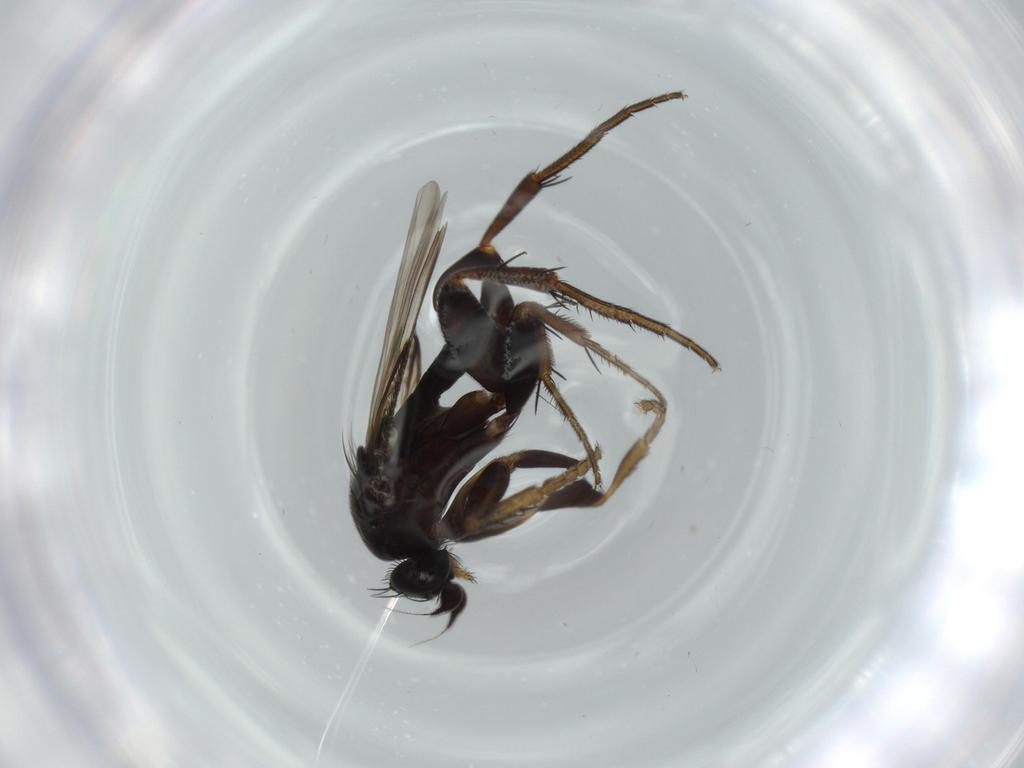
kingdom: Animalia
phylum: Arthropoda
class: Insecta
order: Diptera
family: Phoridae
